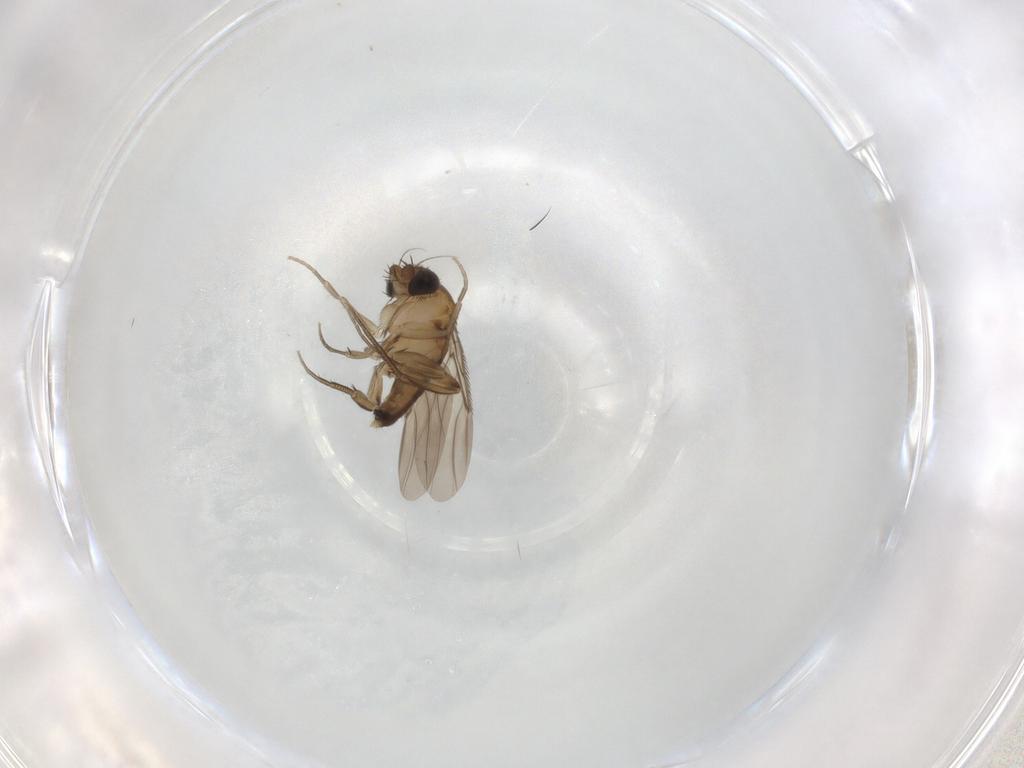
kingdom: Animalia
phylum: Arthropoda
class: Insecta
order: Diptera
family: Phoridae
